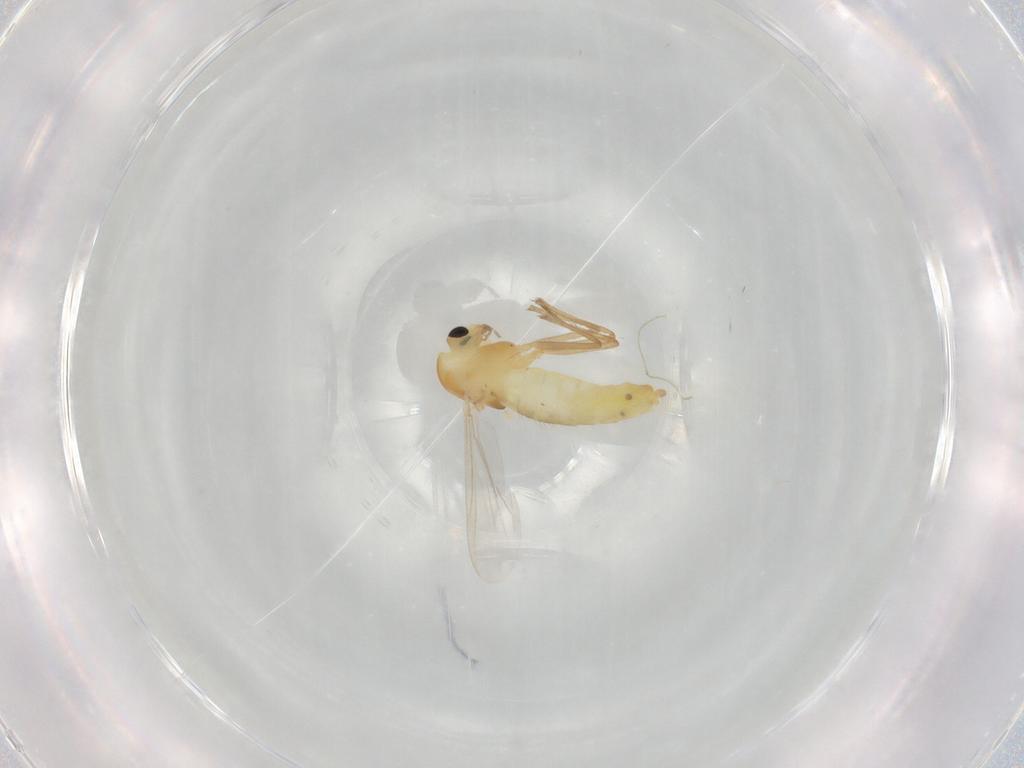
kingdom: Animalia
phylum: Arthropoda
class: Insecta
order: Diptera
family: Chironomidae
